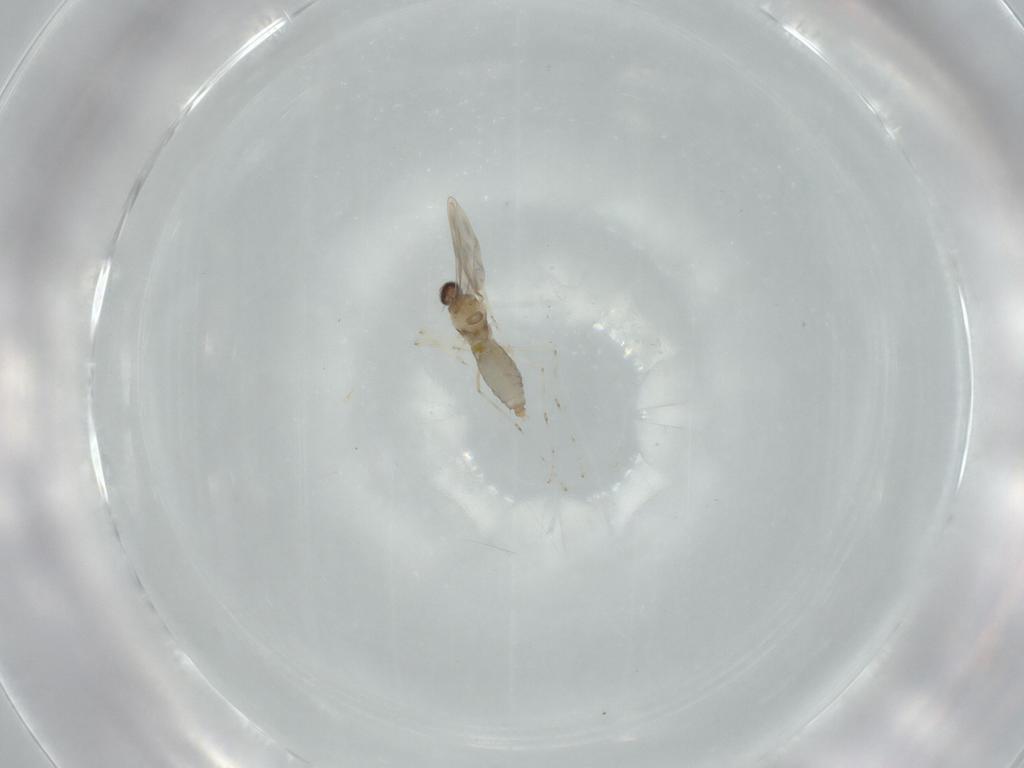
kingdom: Animalia
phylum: Arthropoda
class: Insecta
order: Diptera
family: Cecidomyiidae
